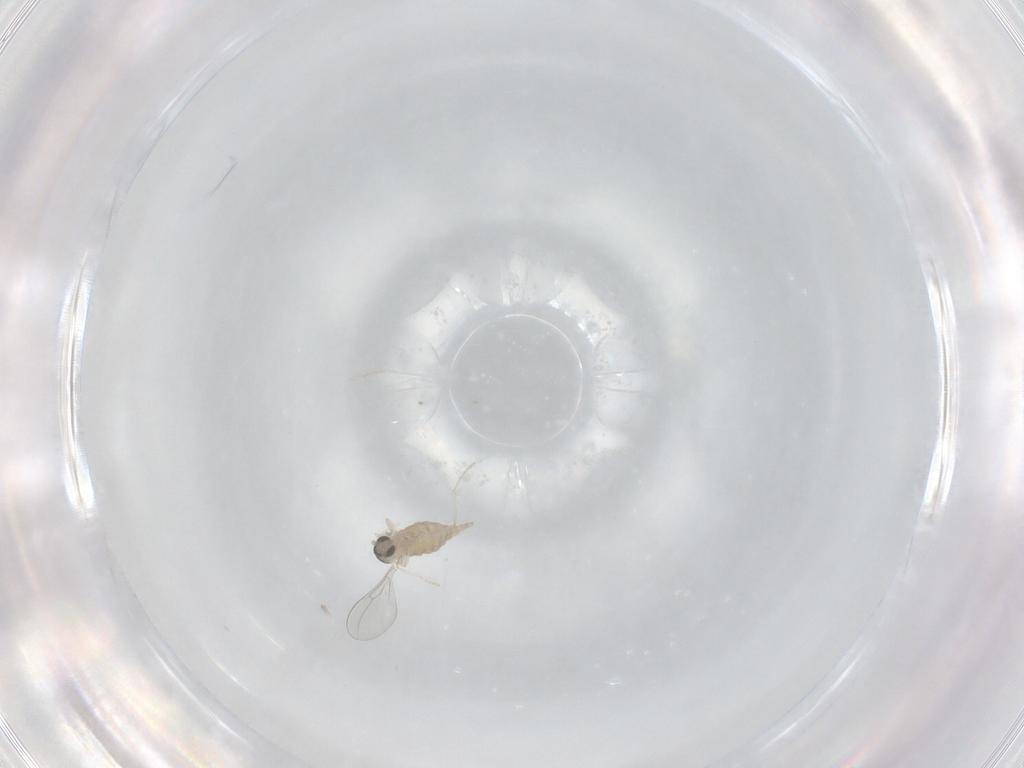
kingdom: Animalia
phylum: Arthropoda
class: Insecta
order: Diptera
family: Cecidomyiidae
